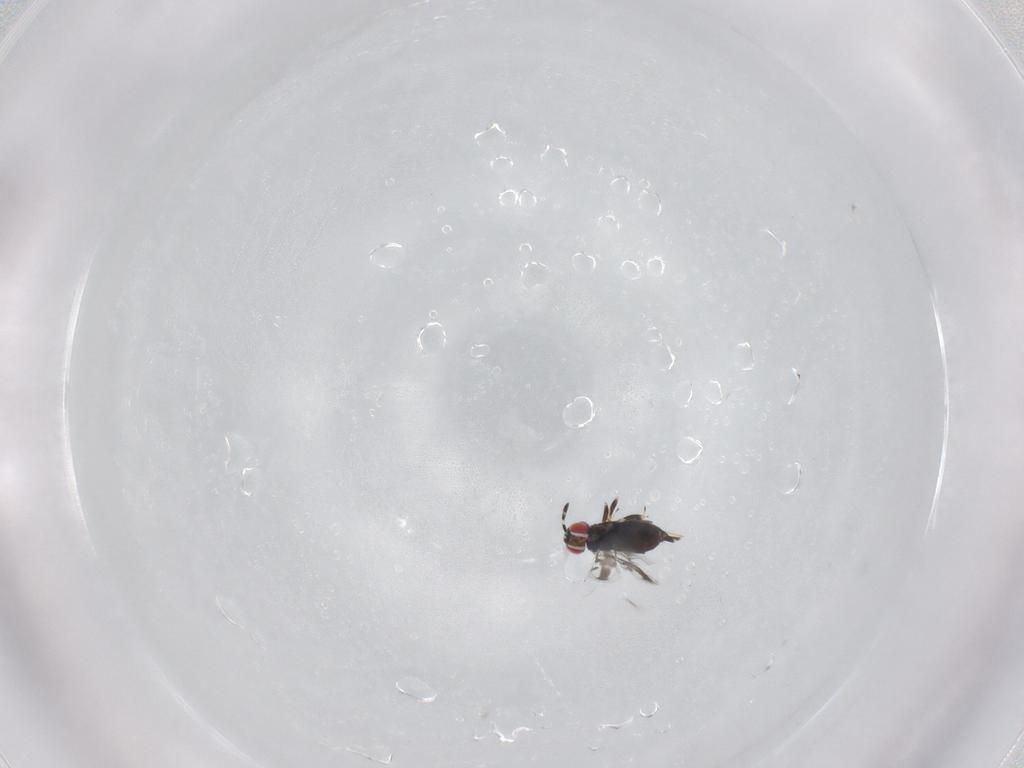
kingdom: Animalia
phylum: Arthropoda
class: Insecta
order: Hymenoptera
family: Azotidae
